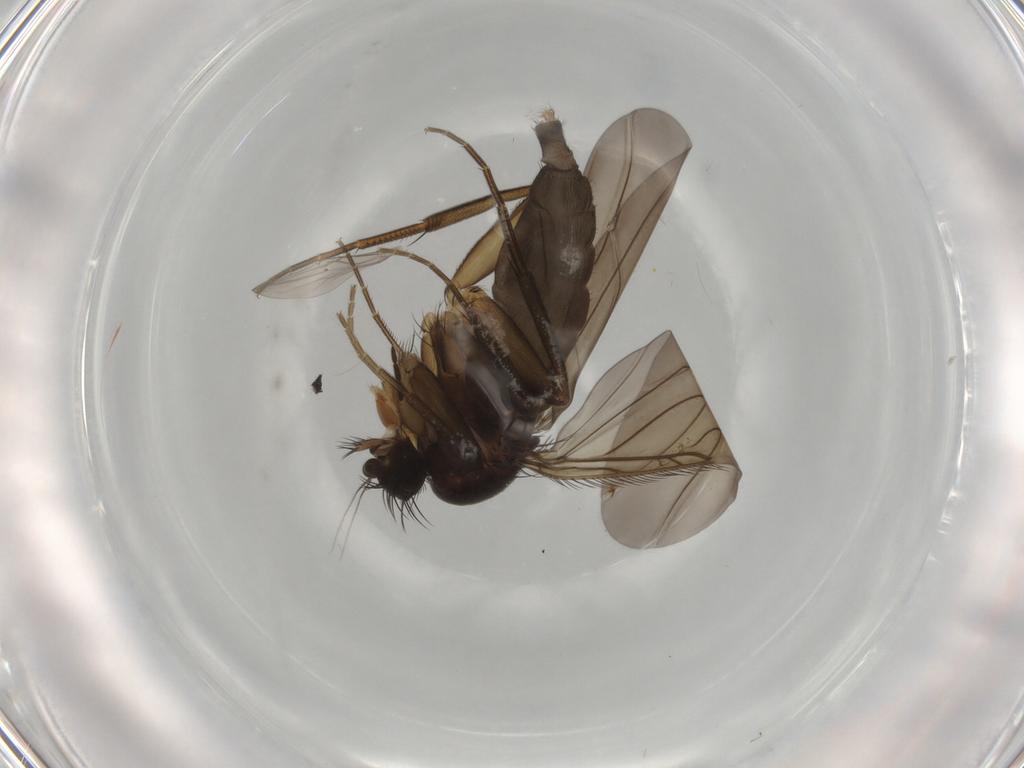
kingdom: Animalia
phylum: Arthropoda
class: Insecta
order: Diptera
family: Phoridae
